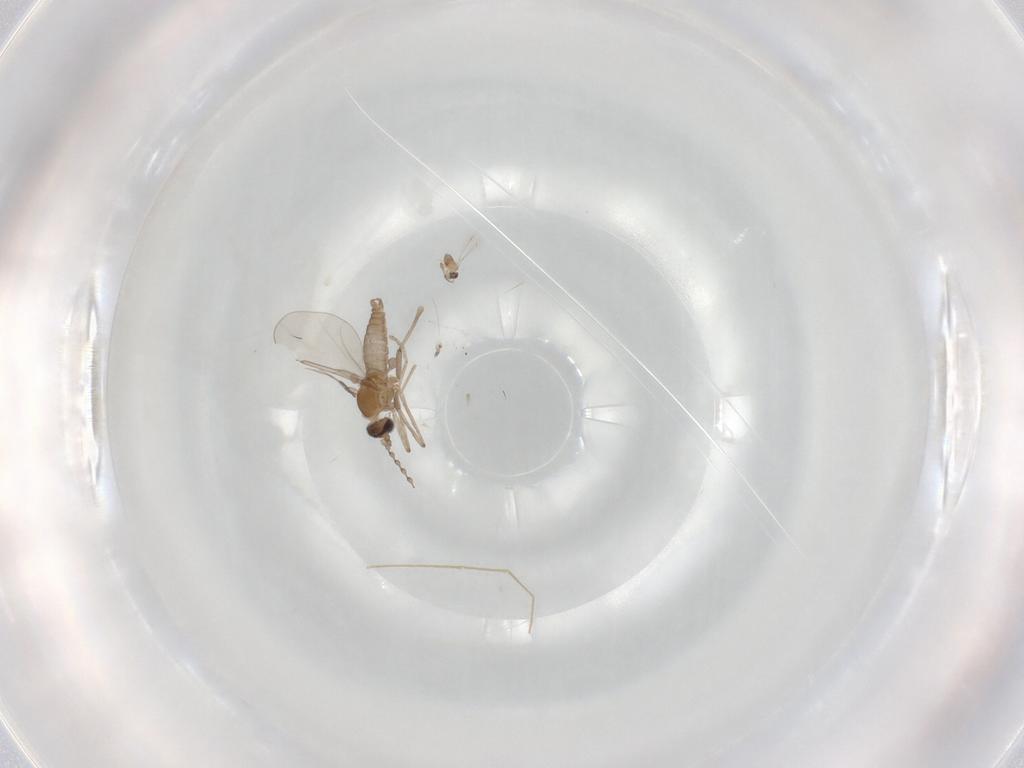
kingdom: Animalia
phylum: Arthropoda
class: Insecta
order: Diptera
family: Cecidomyiidae
